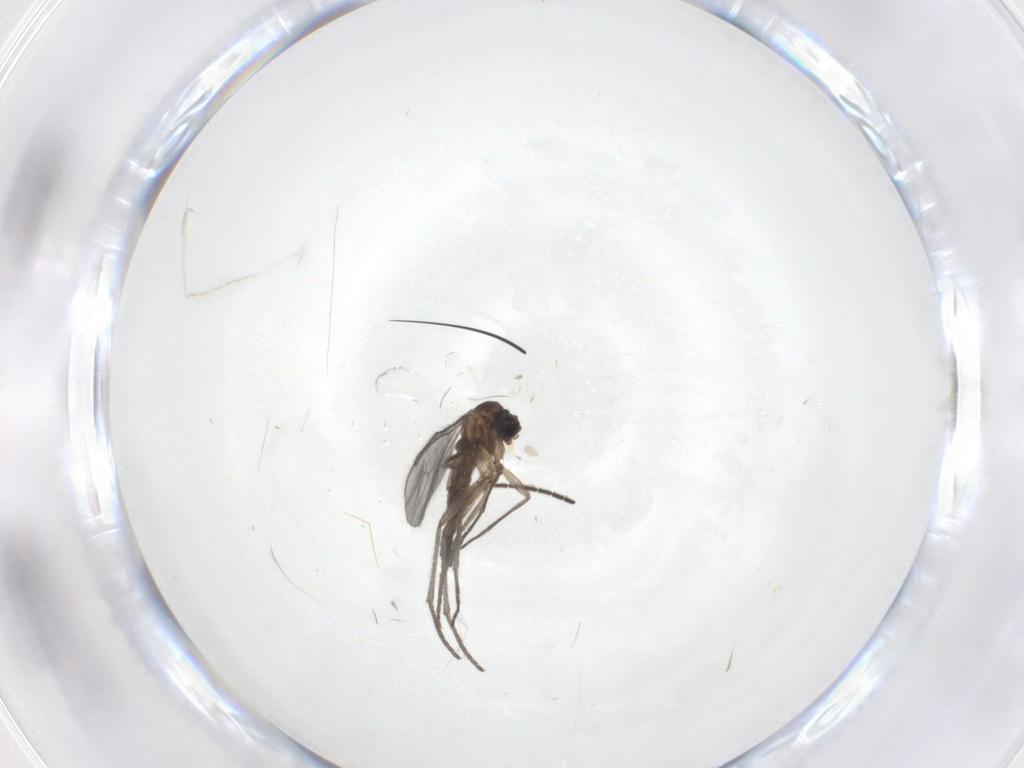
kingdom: Animalia
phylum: Arthropoda
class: Insecta
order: Diptera
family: Sciaridae
